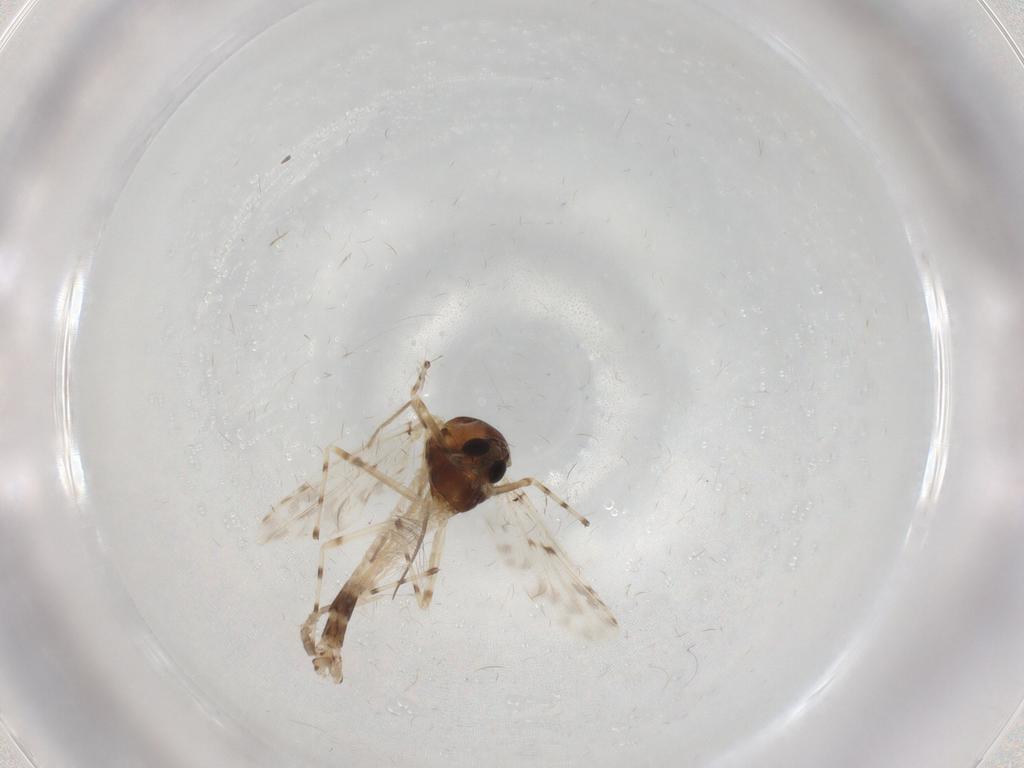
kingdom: Animalia
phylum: Arthropoda
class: Insecta
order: Diptera
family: Chironomidae
